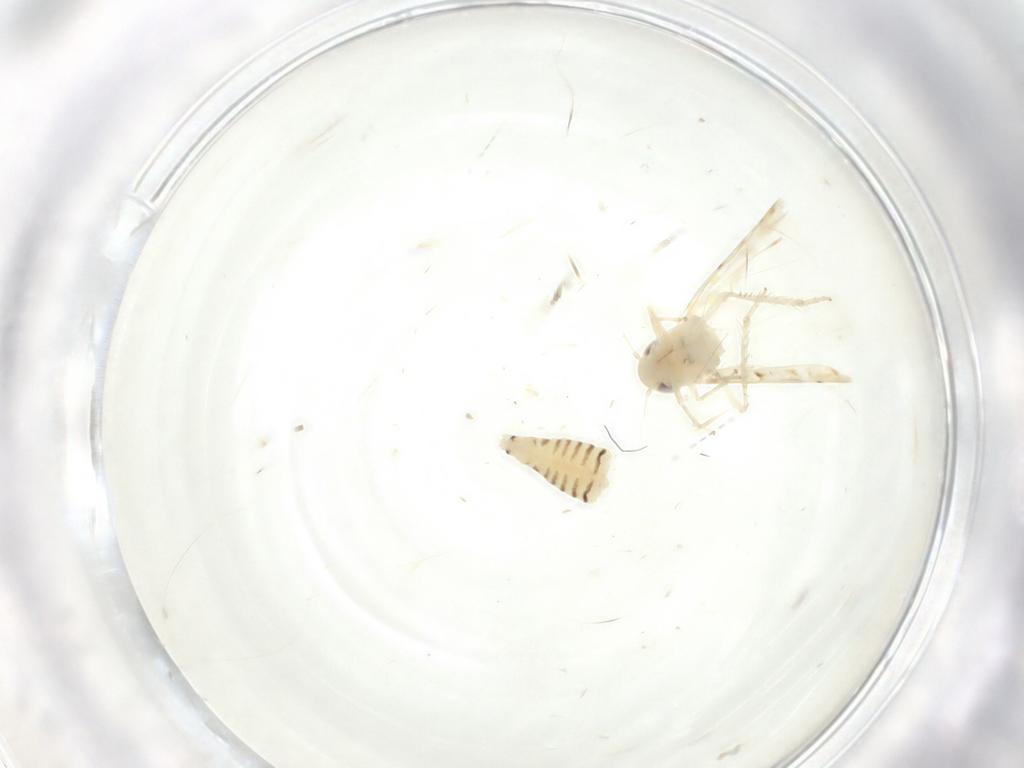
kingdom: Animalia
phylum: Arthropoda
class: Insecta
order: Hemiptera
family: Cicadellidae
